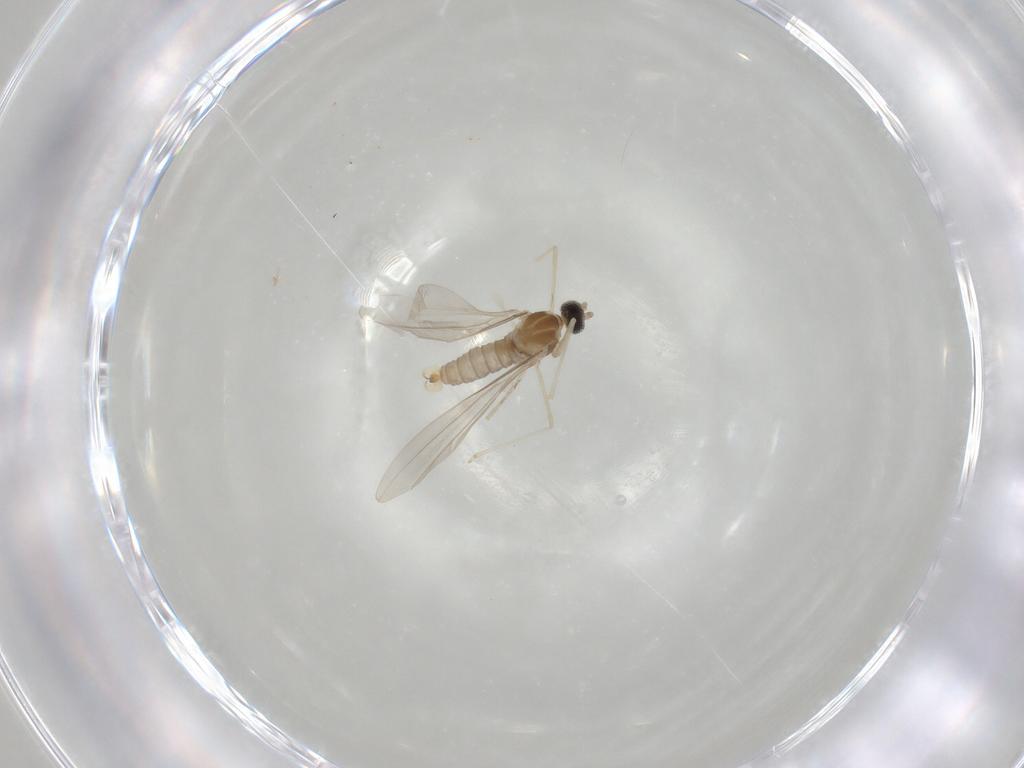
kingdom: Animalia
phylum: Arthropoda
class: Insecta
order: Diptera
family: Cecidomyiidae
